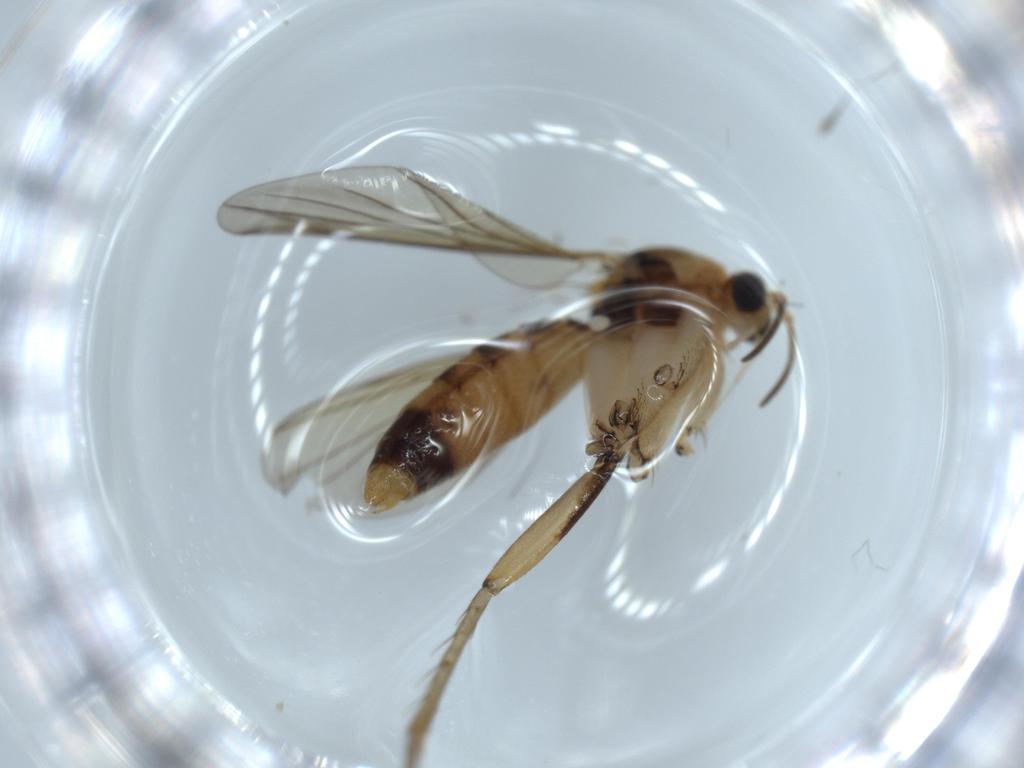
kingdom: Animalia
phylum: Arthropoda
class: Insecta
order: Diptera
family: Mycetophilidae
